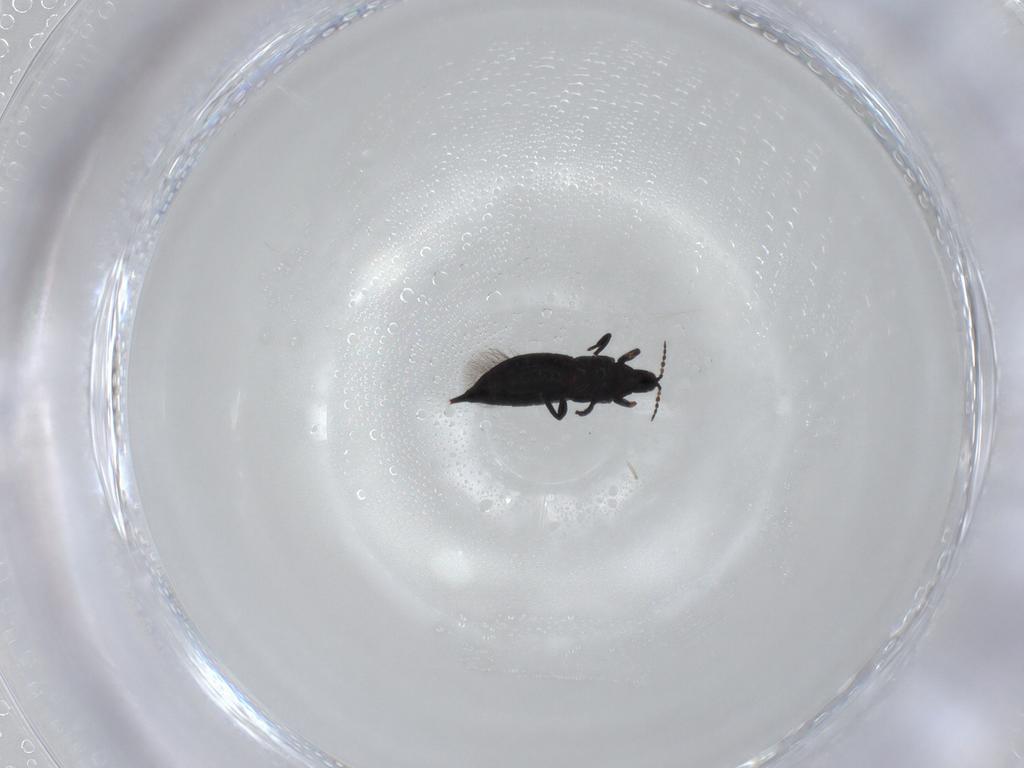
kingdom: Animalia
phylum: Arthropoda
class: Insecta
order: Thysanoptera
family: Phlaeothripidae
